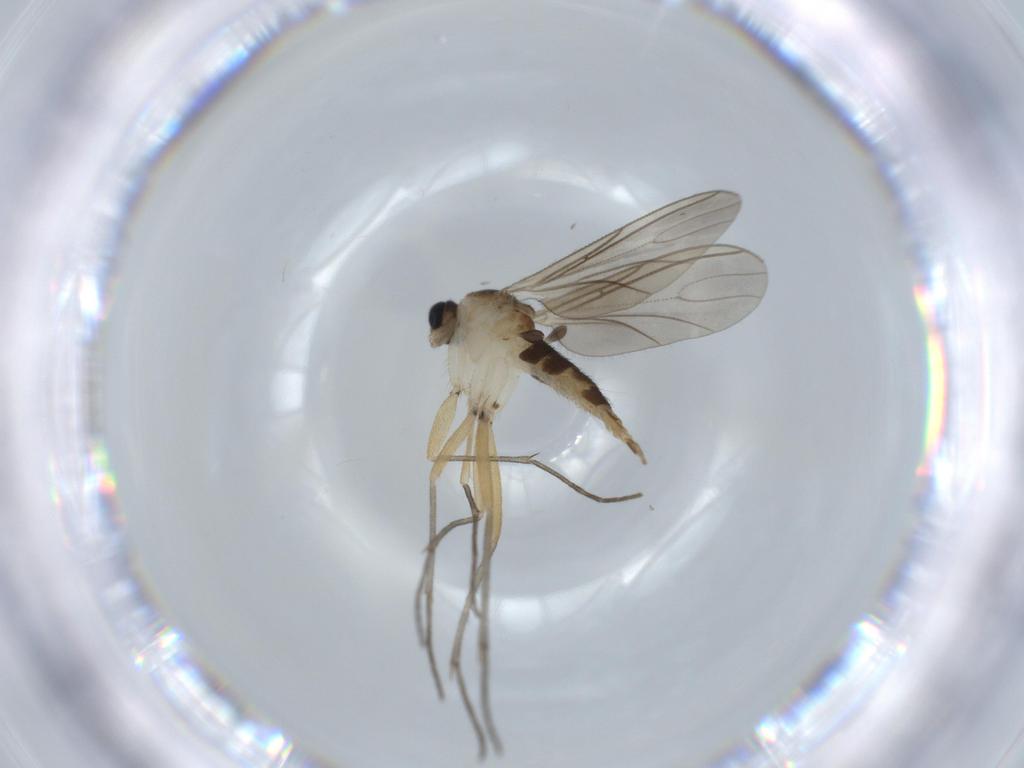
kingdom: Animalia
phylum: Arthropoda
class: Insecta
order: Diptera
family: Sciaridae
